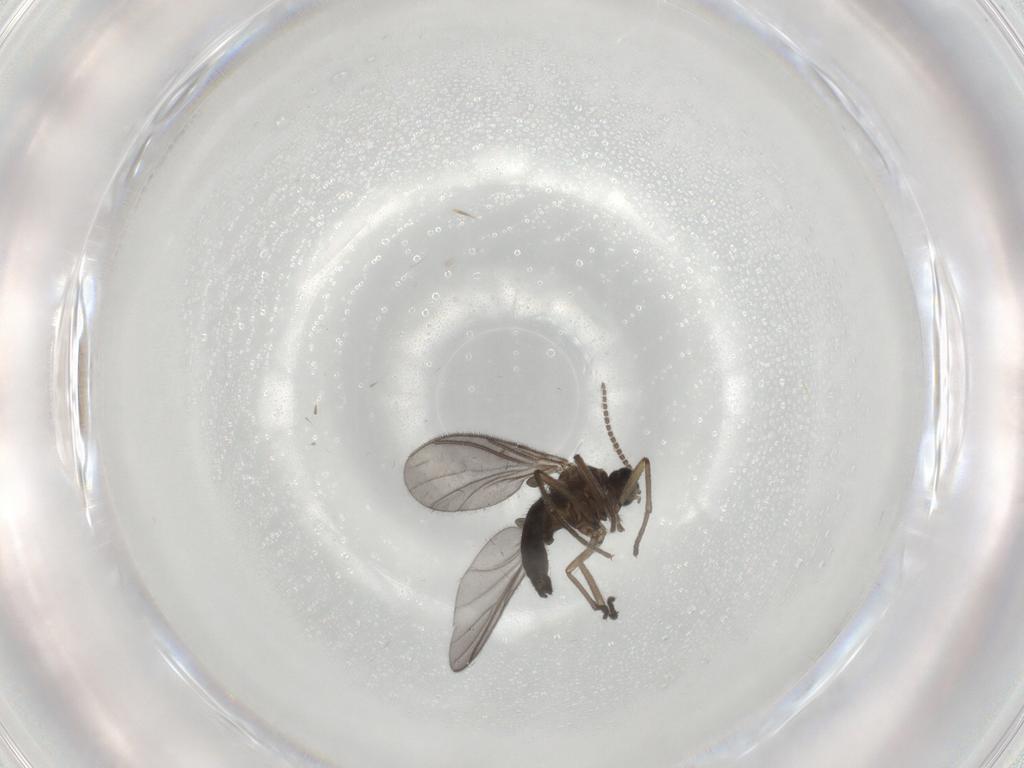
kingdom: Animalia
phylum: Arthropoda
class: Insecta
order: Diptera
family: Sciaridae
